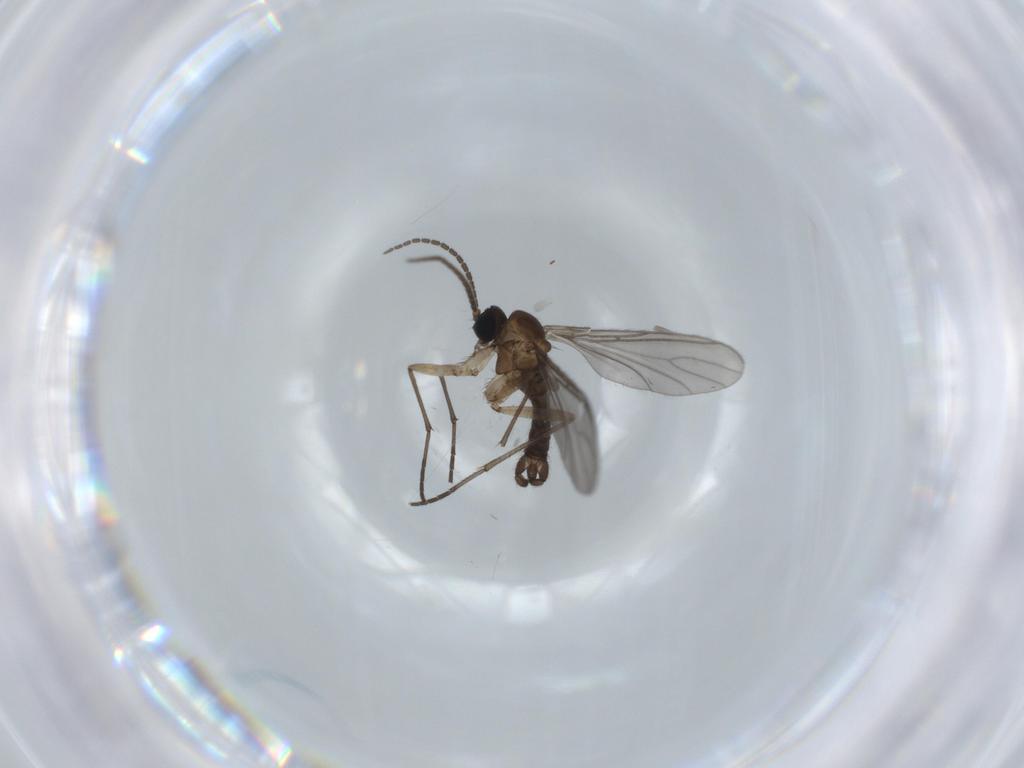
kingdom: Animalia
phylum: Arthropoda
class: Insecta
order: Diptera
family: Sciaridae
